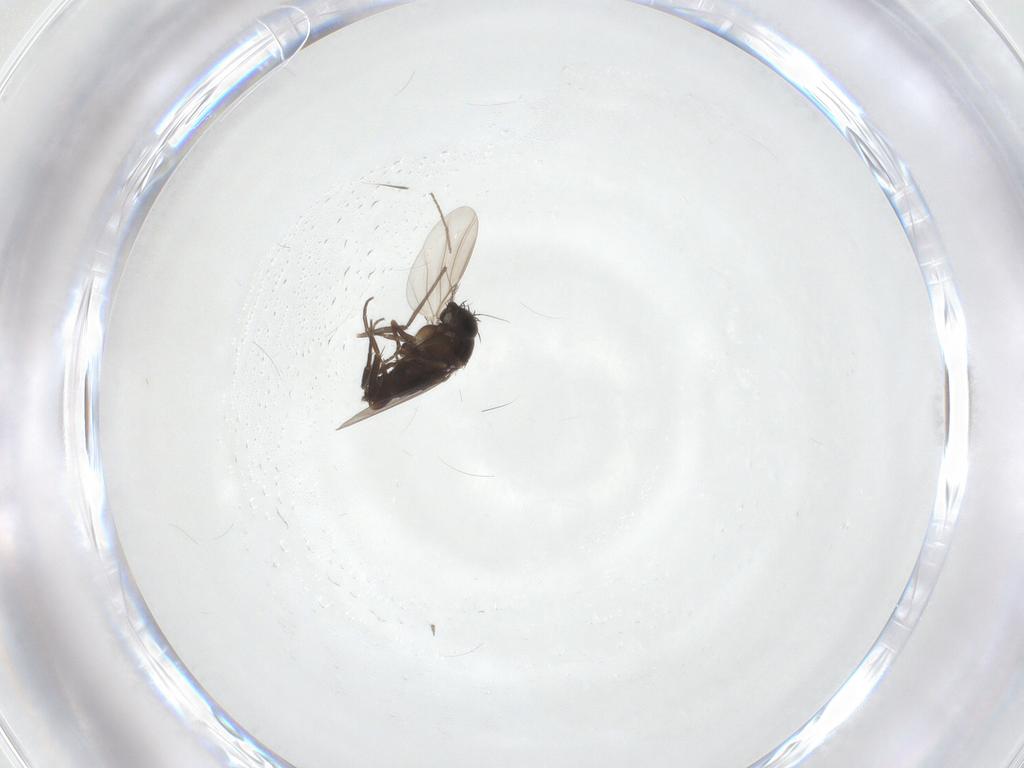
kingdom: Animalia
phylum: Arthropoda
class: Insecta
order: Diptera
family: Phoridae
